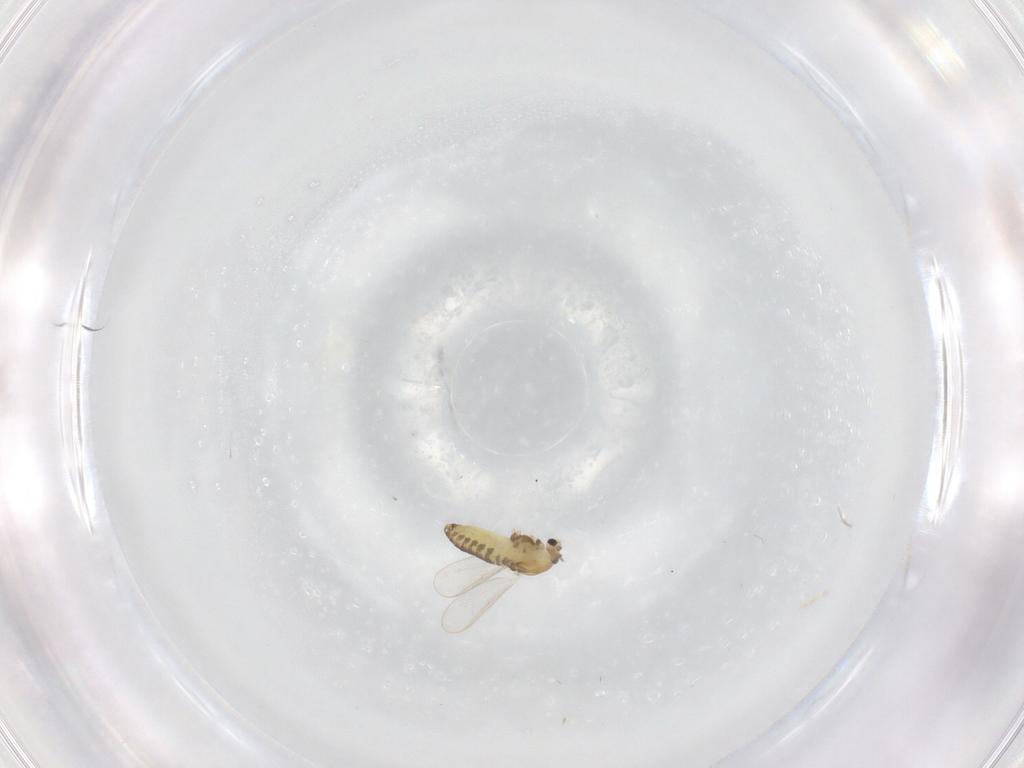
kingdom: Animalia
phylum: Arthropoda
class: Insecta
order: Diptera
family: Chironomidae
